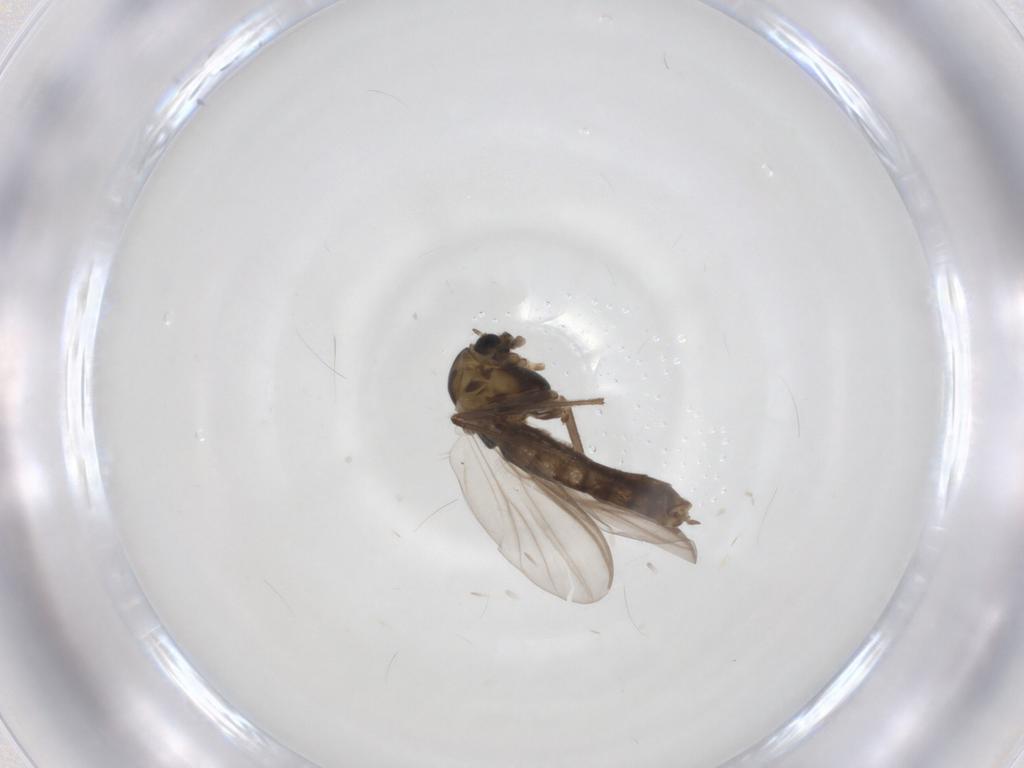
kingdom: Animalia
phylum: Arthropoda
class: Insecta
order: Diptera
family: Chironomidae
